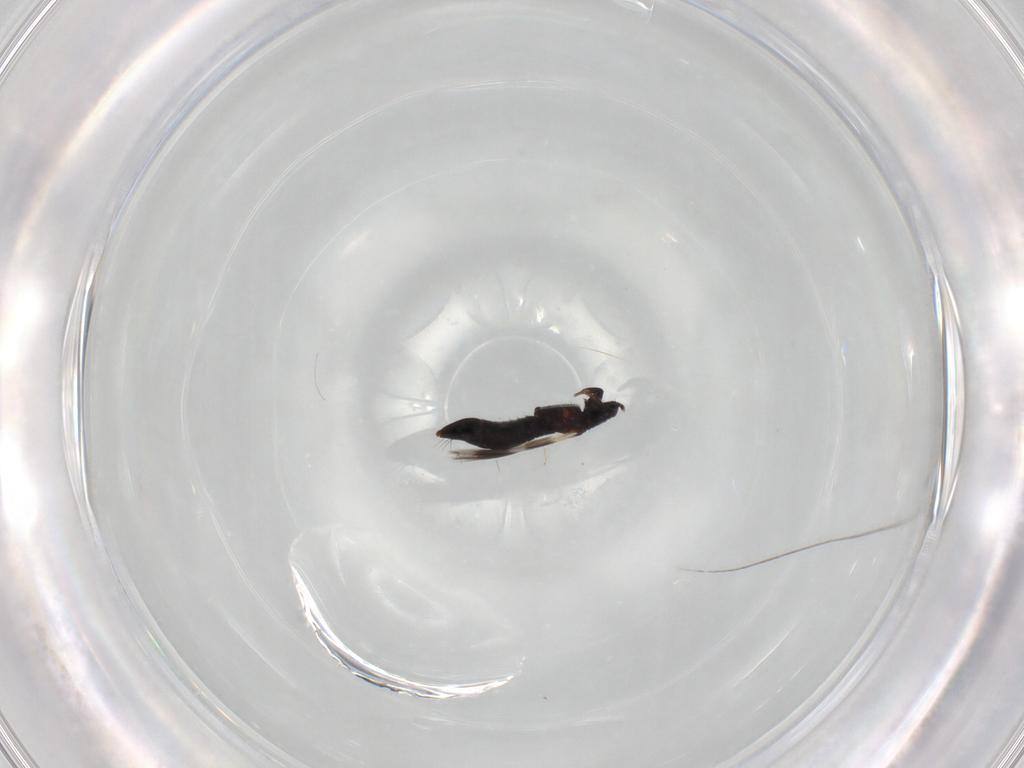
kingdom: Animalia
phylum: Arthropoda
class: Insecta
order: Thysanoptera
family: Aeolothripidae
